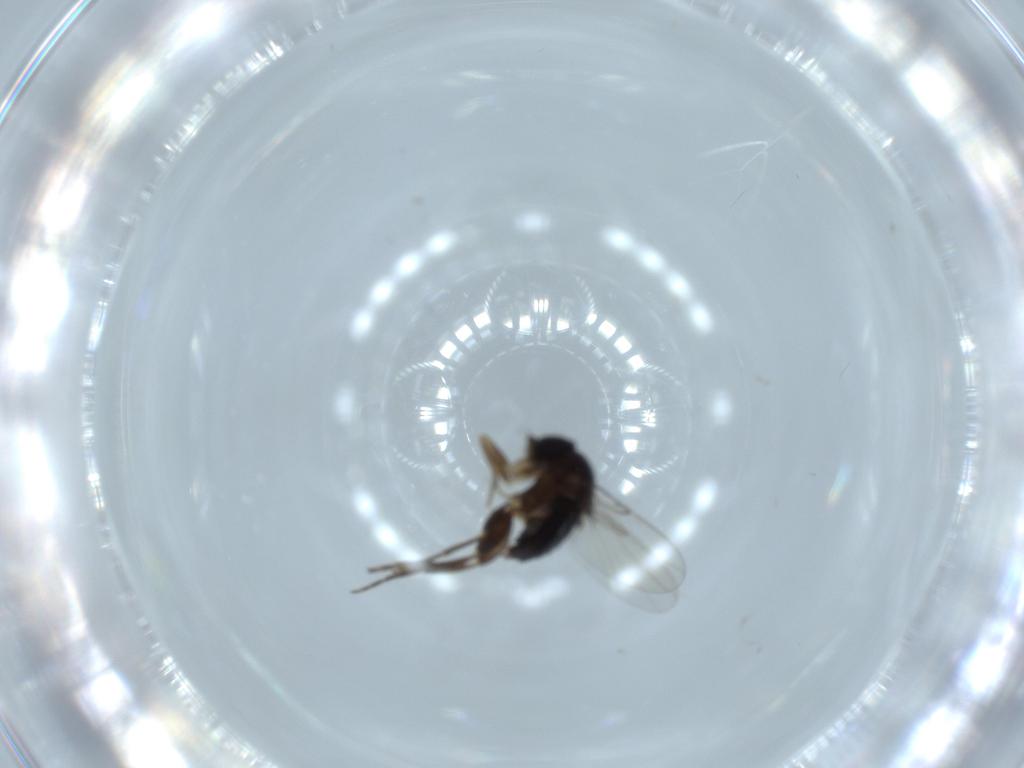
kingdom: Animalia
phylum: Arthropoda
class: Insecta
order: Diptera
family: Phoridae
